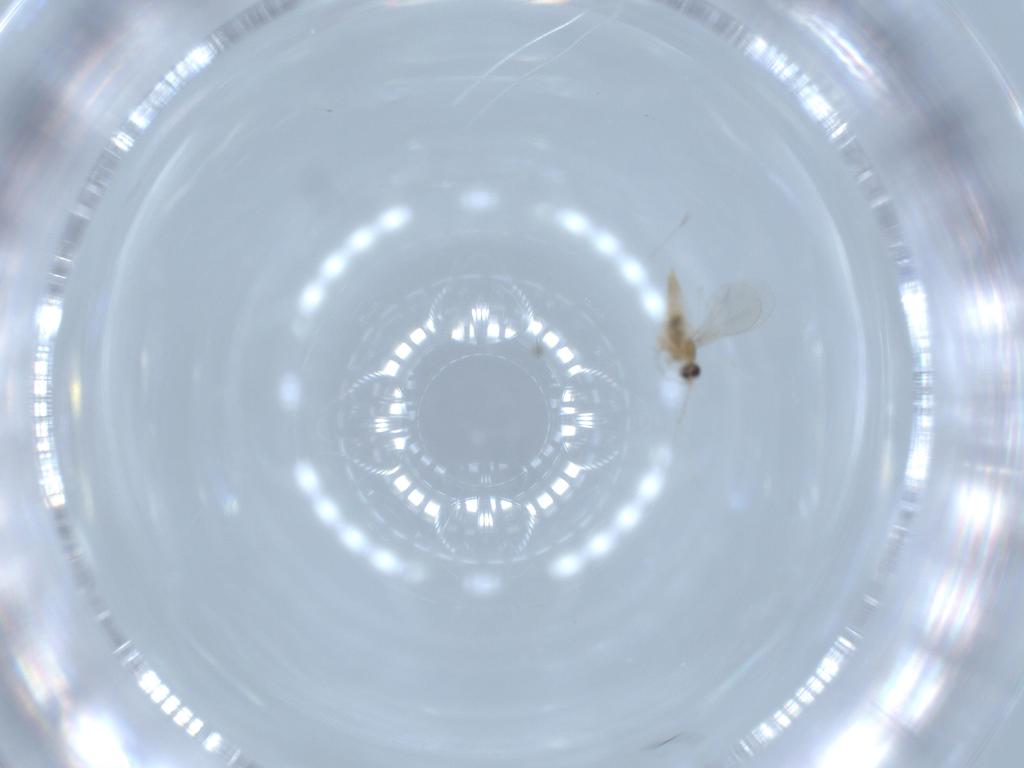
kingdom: Animalia
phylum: Arthropoda
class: Insecta
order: Diptera
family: Cecidomyiidae
